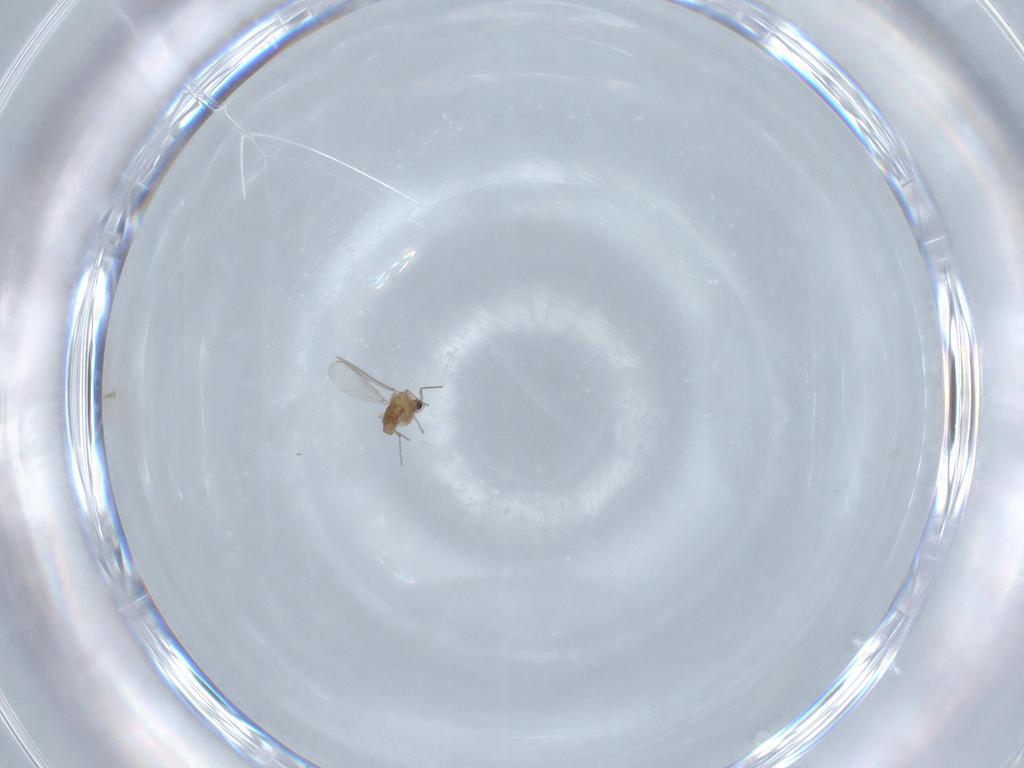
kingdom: Animalia
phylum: Arthropoda
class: Insecta
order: Diptera
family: Chironomidae
